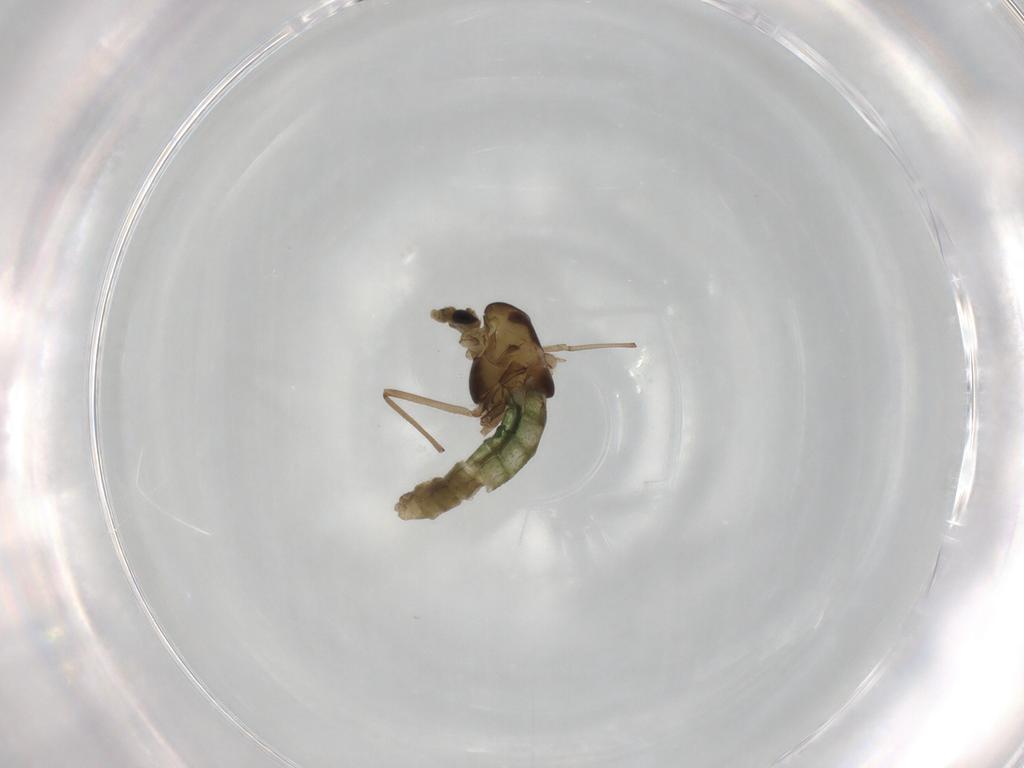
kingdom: Animalia
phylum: Arthropoda
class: Insecta
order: Diptera
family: Chironomidae
